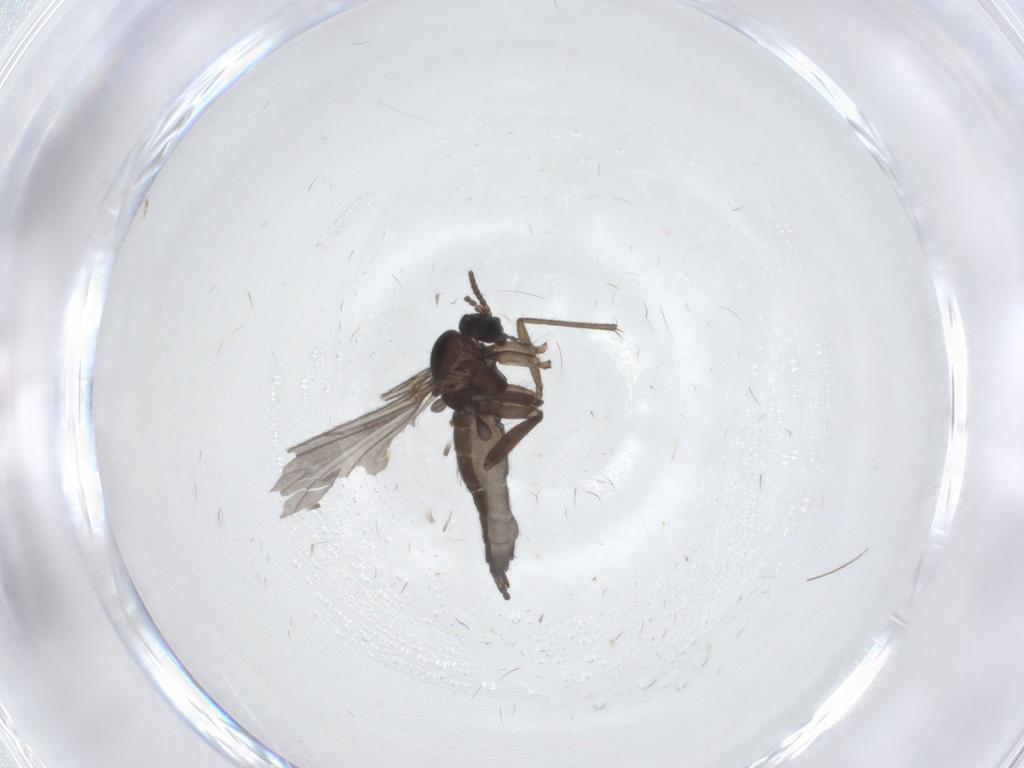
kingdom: Animalia
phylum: Arthropoda
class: Insecta
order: Diptera
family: Sciaridae
